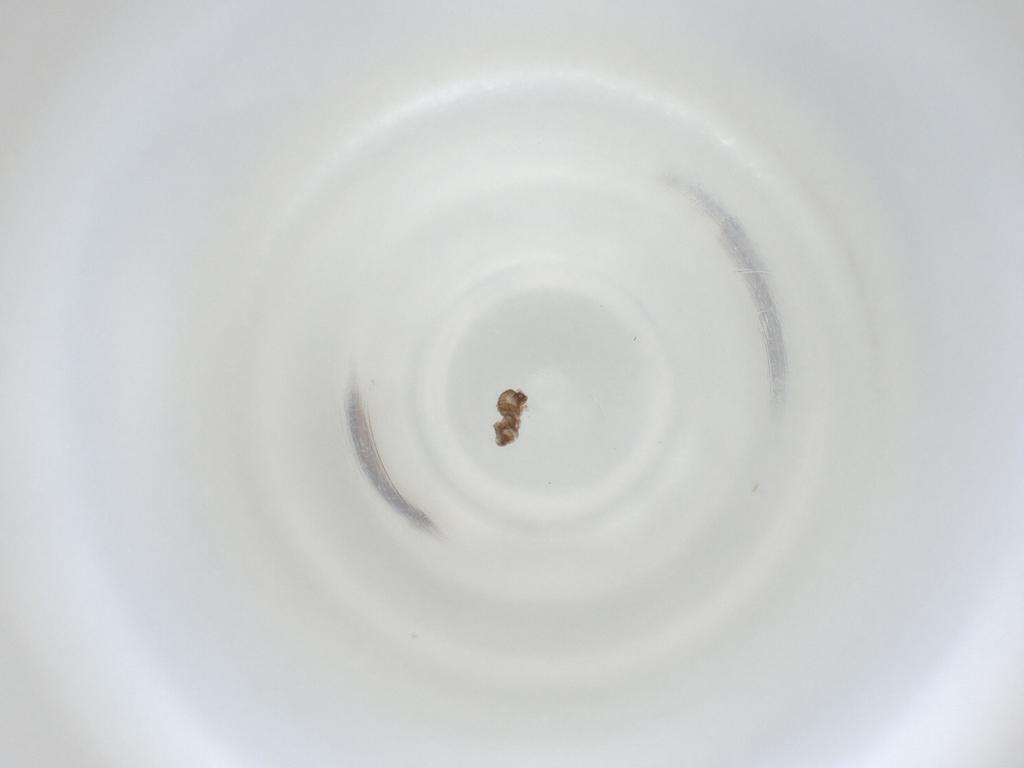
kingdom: Animalia
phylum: Arthropoda
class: Insecta
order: Diptera
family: Cecidomyiidae
